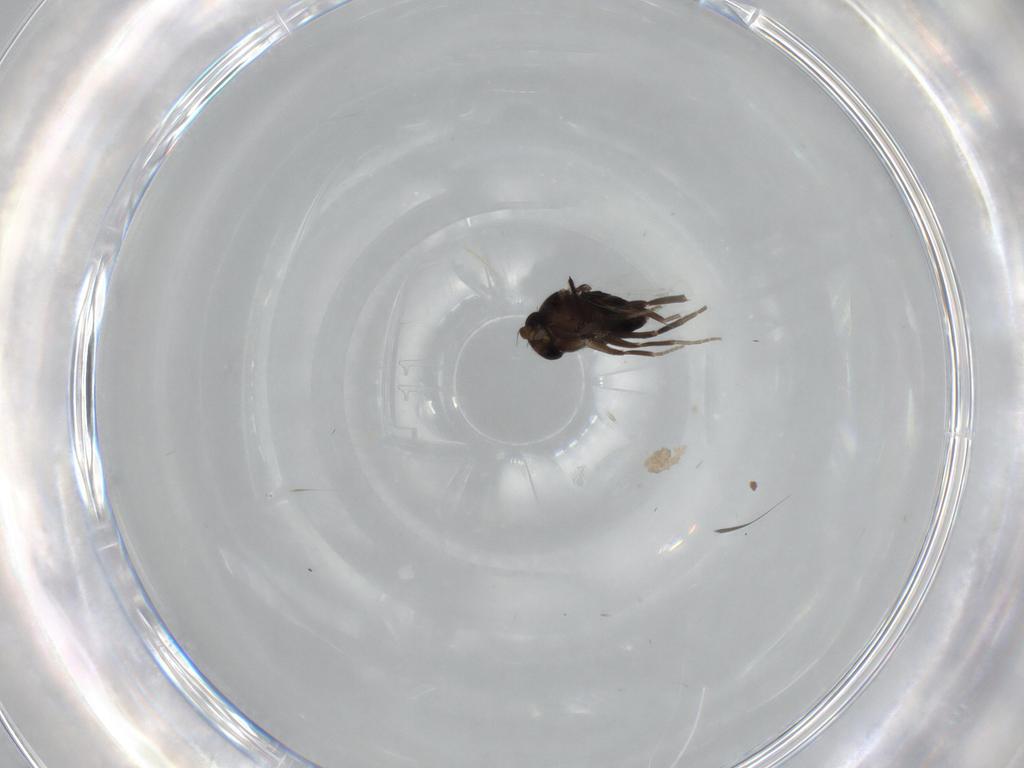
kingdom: Animalia
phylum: Arthropoda
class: Insecta
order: Diptera
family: Phoridae
